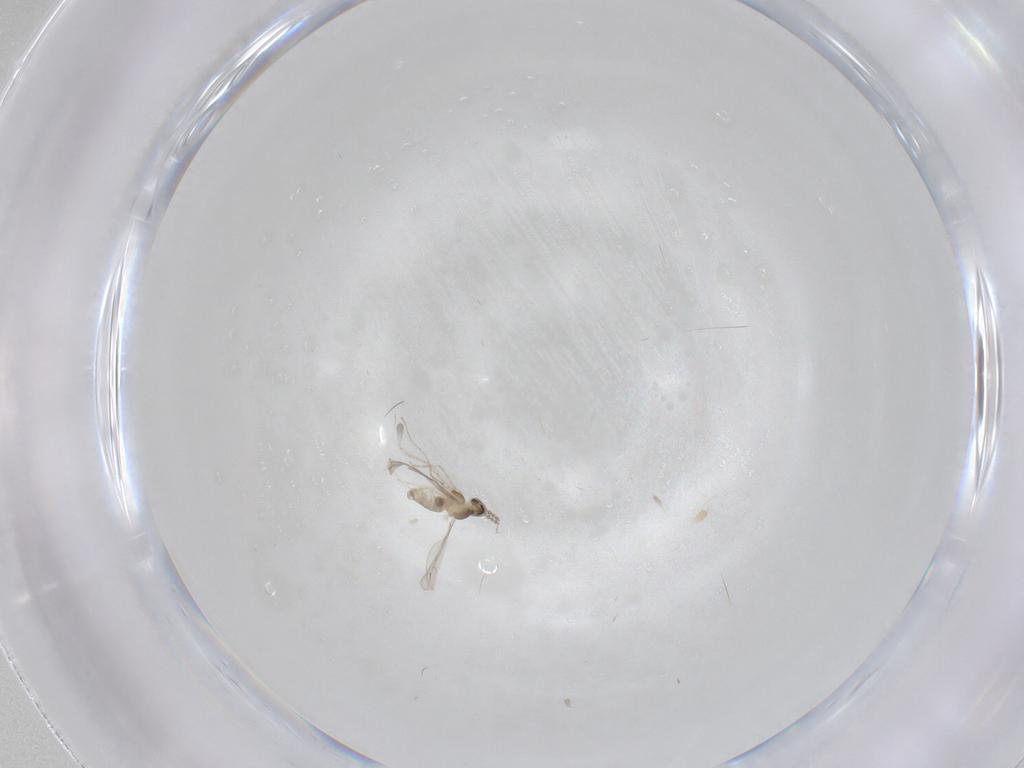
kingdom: Animalia
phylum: Arthropoda
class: Insecta
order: Diptera
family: Cecidomyiidae
